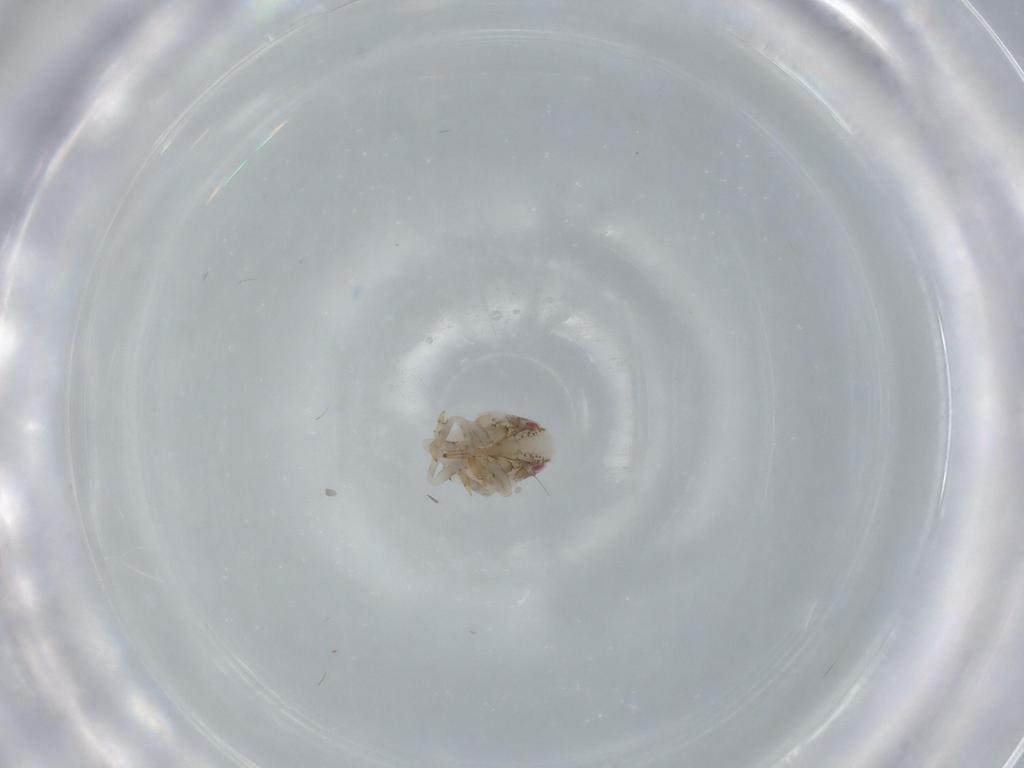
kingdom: Animalia
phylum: Arthropoda
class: Insecta
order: Hemiptera
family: Acanaloniidae
